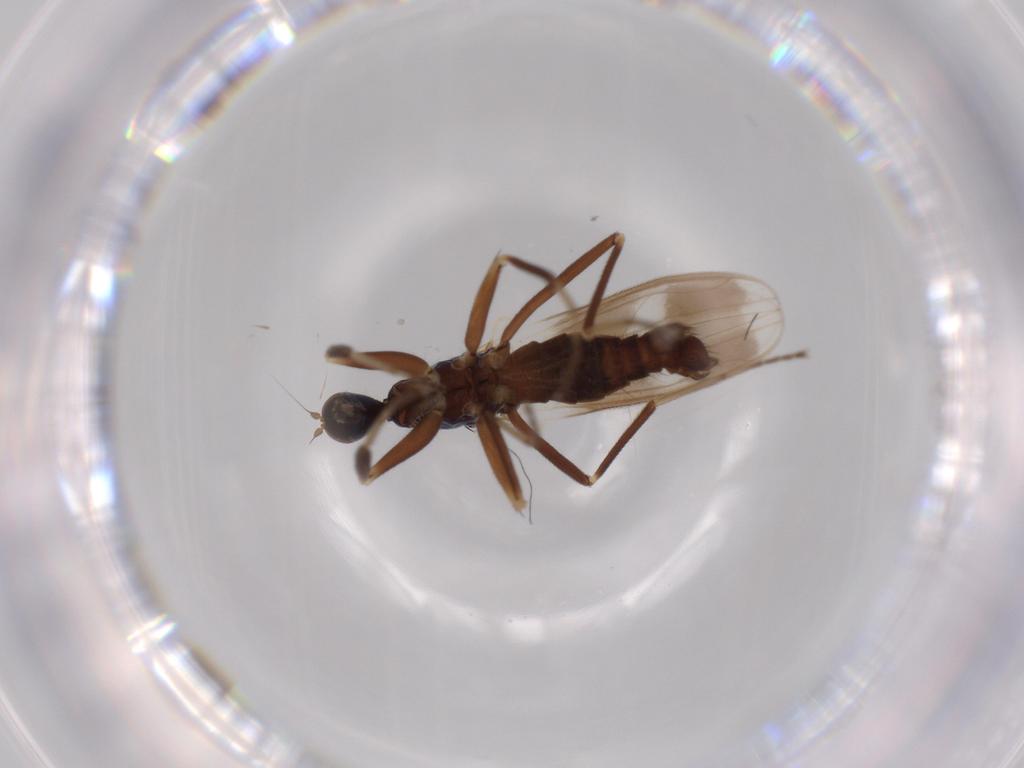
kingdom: Animalia
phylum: Arthropoda
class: Insecta
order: Diptera
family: Hybotidae
